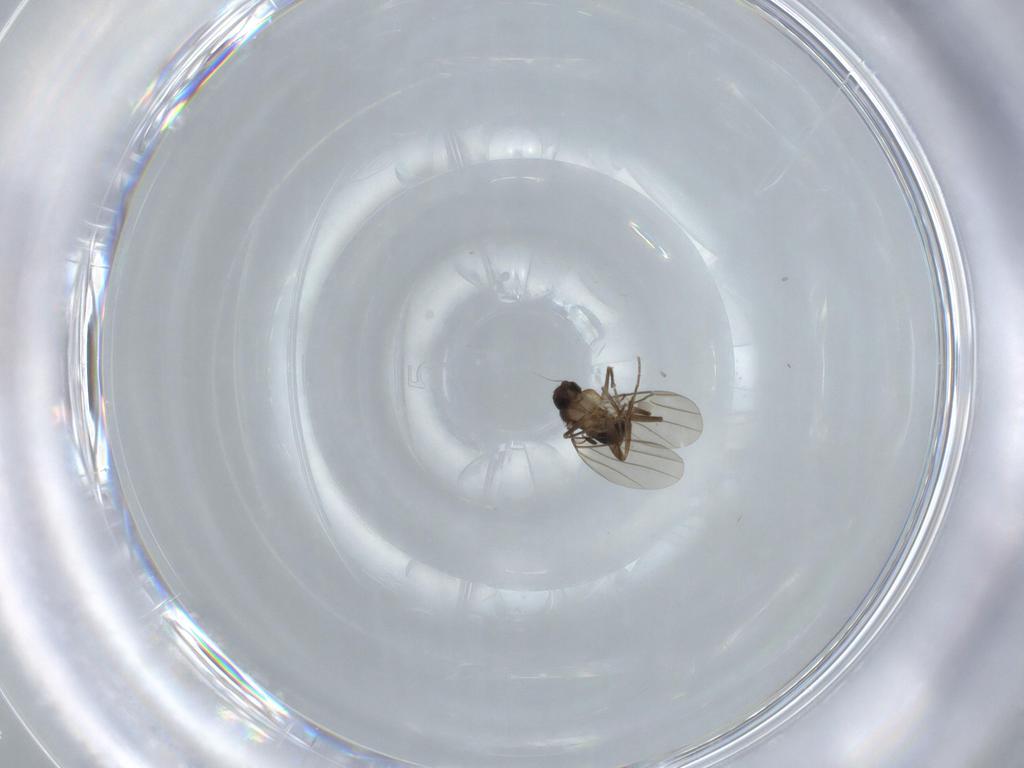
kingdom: Animalia
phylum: Arthropoda
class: Insecta
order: Diptera
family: Phoridae
